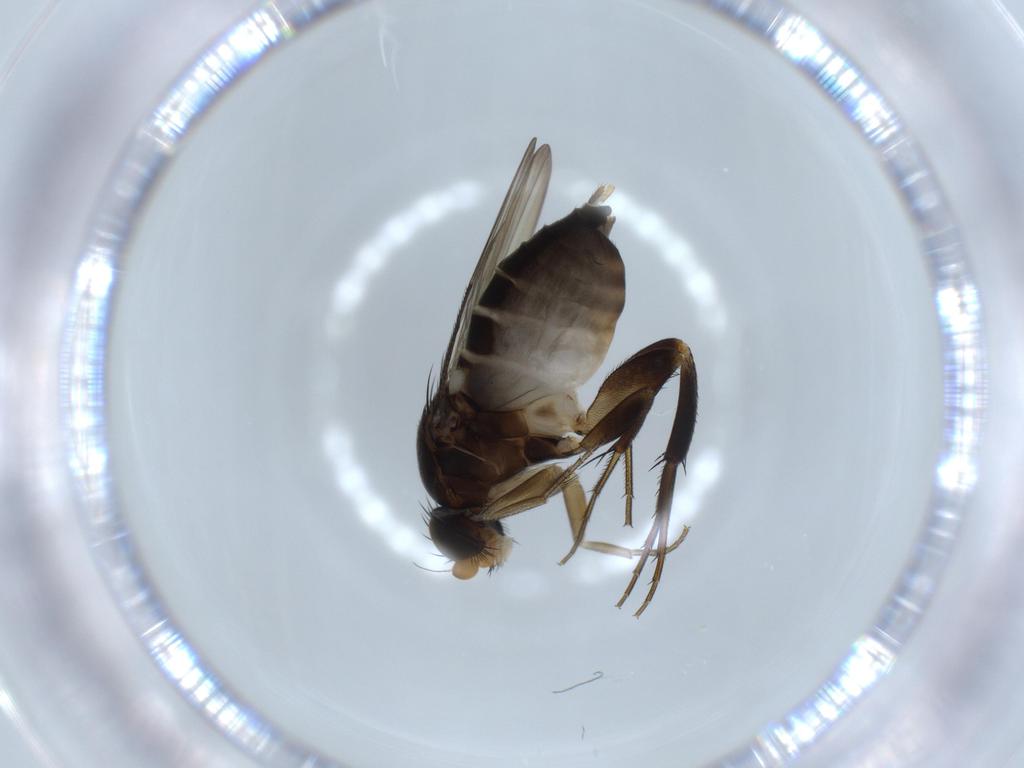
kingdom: Animalia
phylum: Arthropoda
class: Insecta
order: Diptera
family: Phoridae
